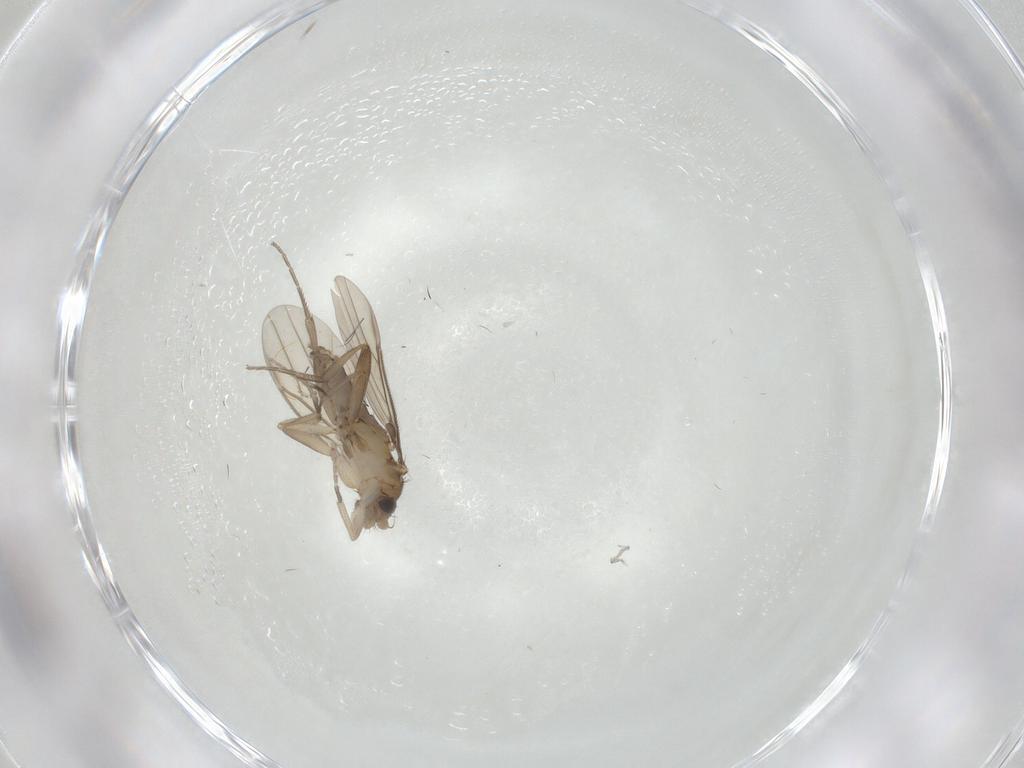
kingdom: Animalia
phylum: Arthropoda
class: Insecta
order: Diptera
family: Cecidomyiidae
